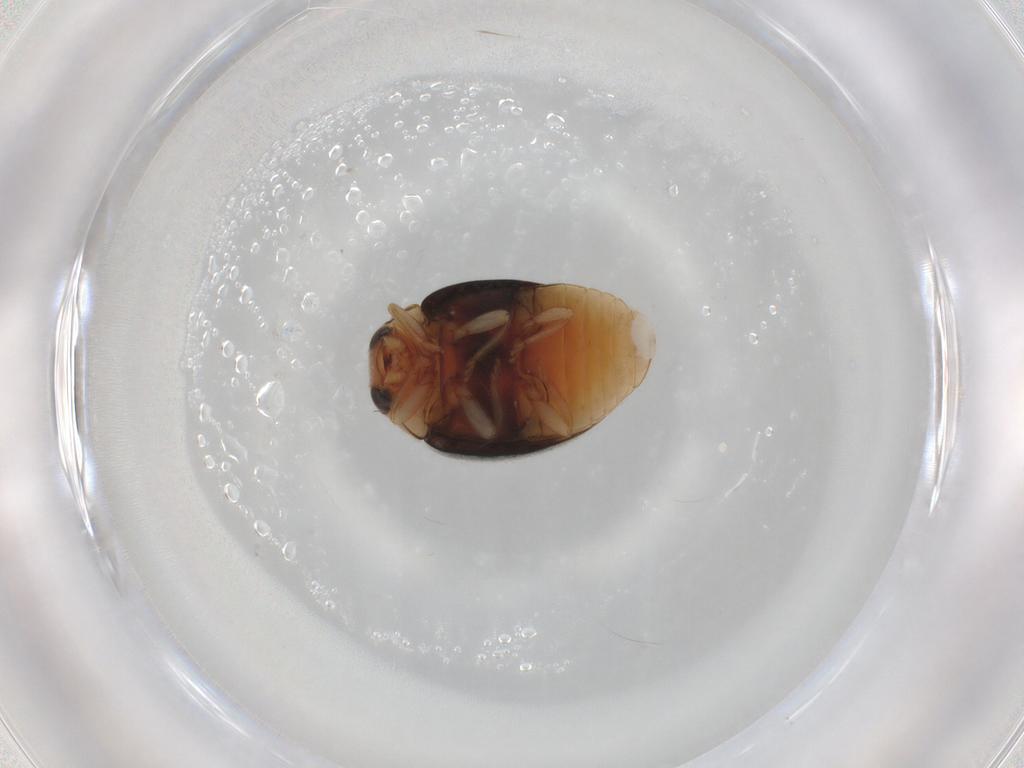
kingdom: Animalia
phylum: Arthropoda
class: Insecta
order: Coleoptera
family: Coccinellidae
